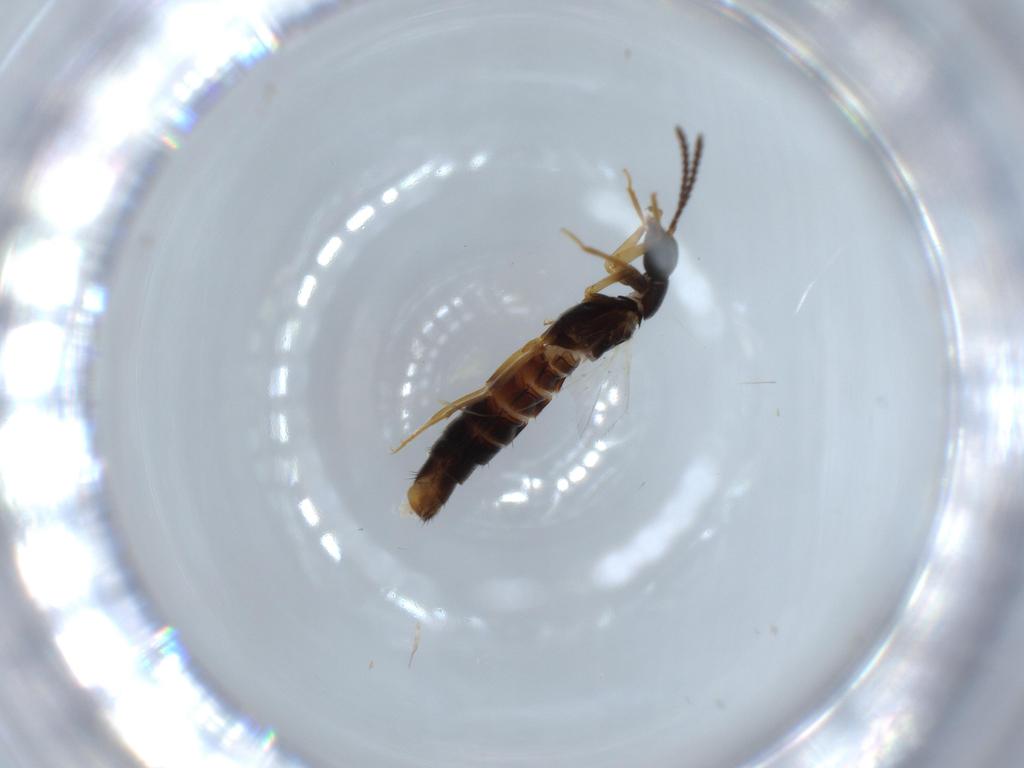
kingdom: Animalia
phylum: Arthropoda
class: Insecta
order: Coleoptera
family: Staphylinidae
